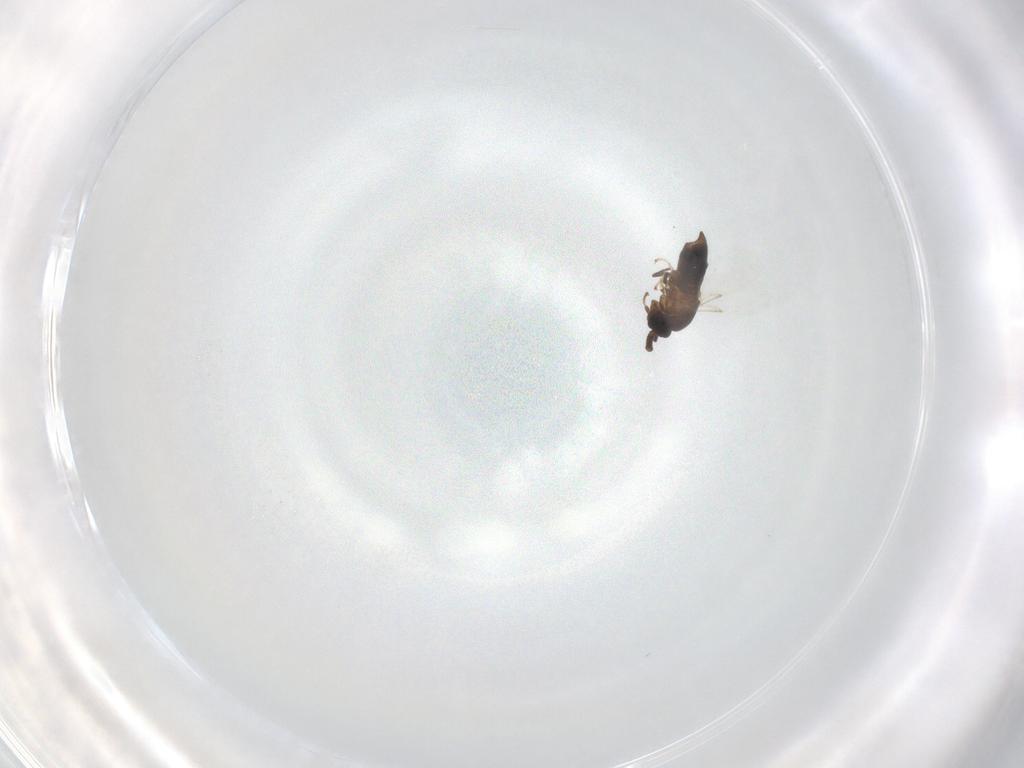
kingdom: Animalia
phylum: Arthropoda
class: Insecta
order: Diptera
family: Scatopsidae
